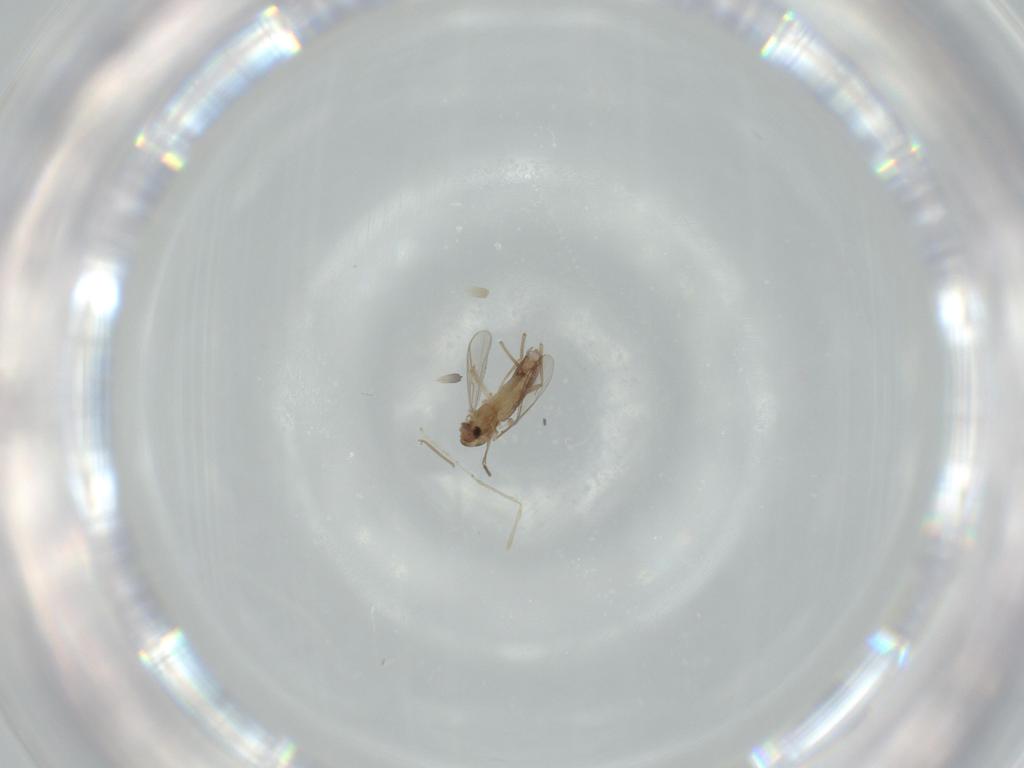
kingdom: Animalia
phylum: Arthropoda
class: Insecta
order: Diptera
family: Chironomidae
